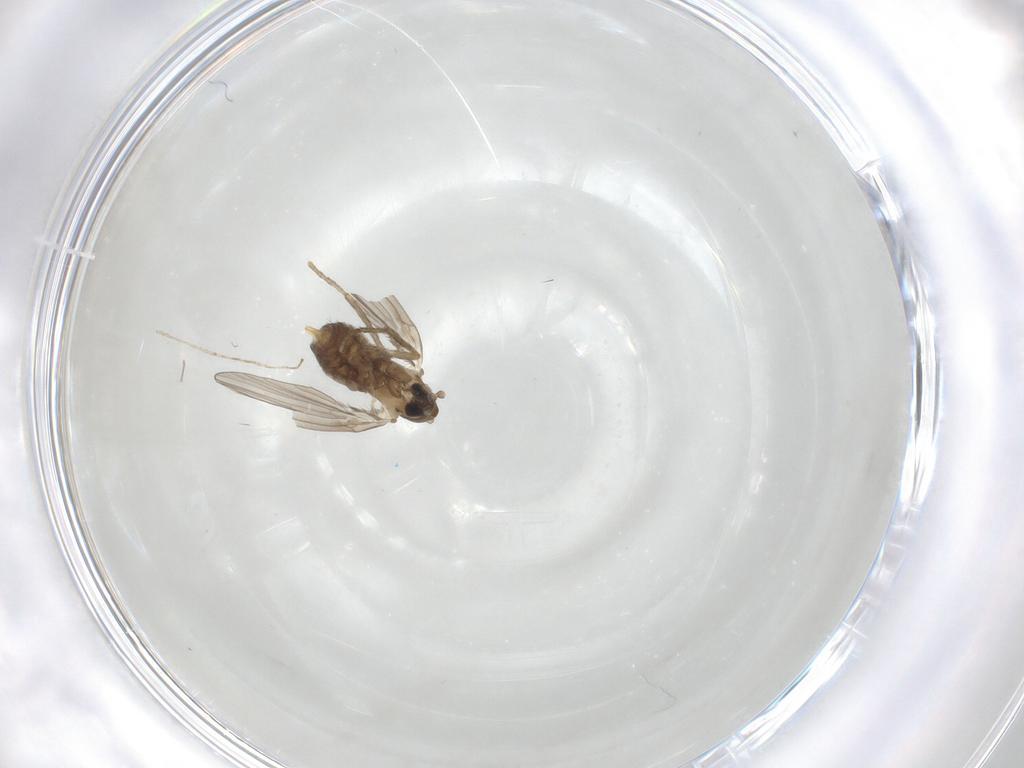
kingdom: Animalia
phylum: Arthropoda
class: Insecta
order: Diptera
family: Psychodidae
